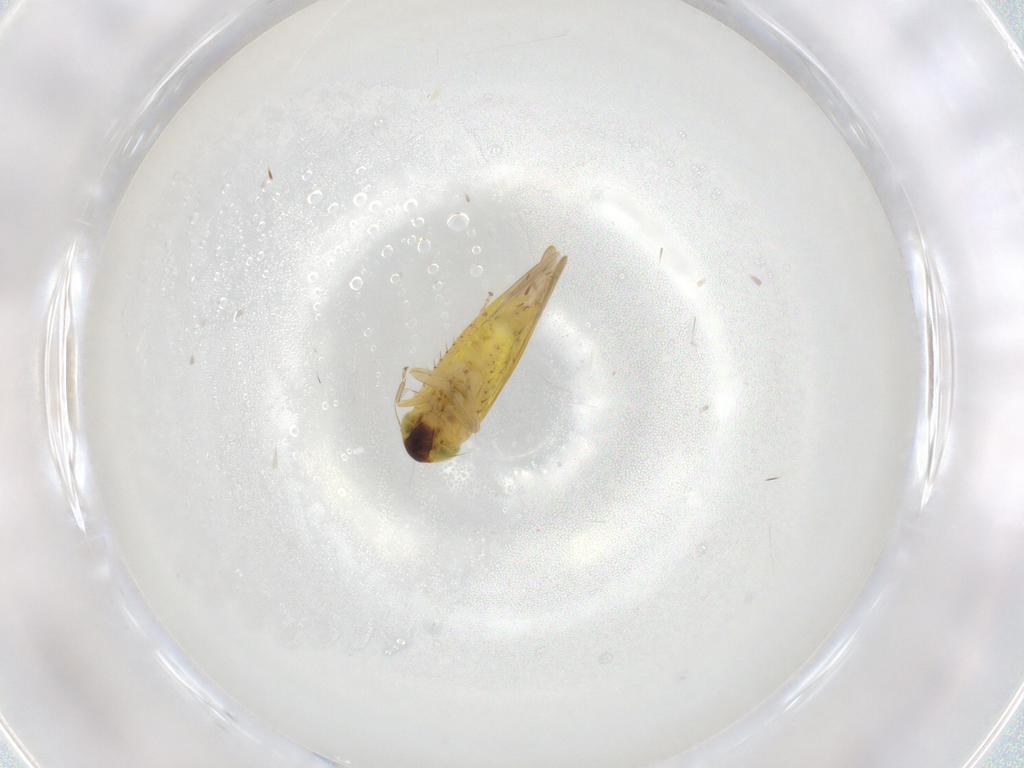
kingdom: Animalia
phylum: Arthropoda
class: Insecta
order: Hemiptera
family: Cicadellidae
